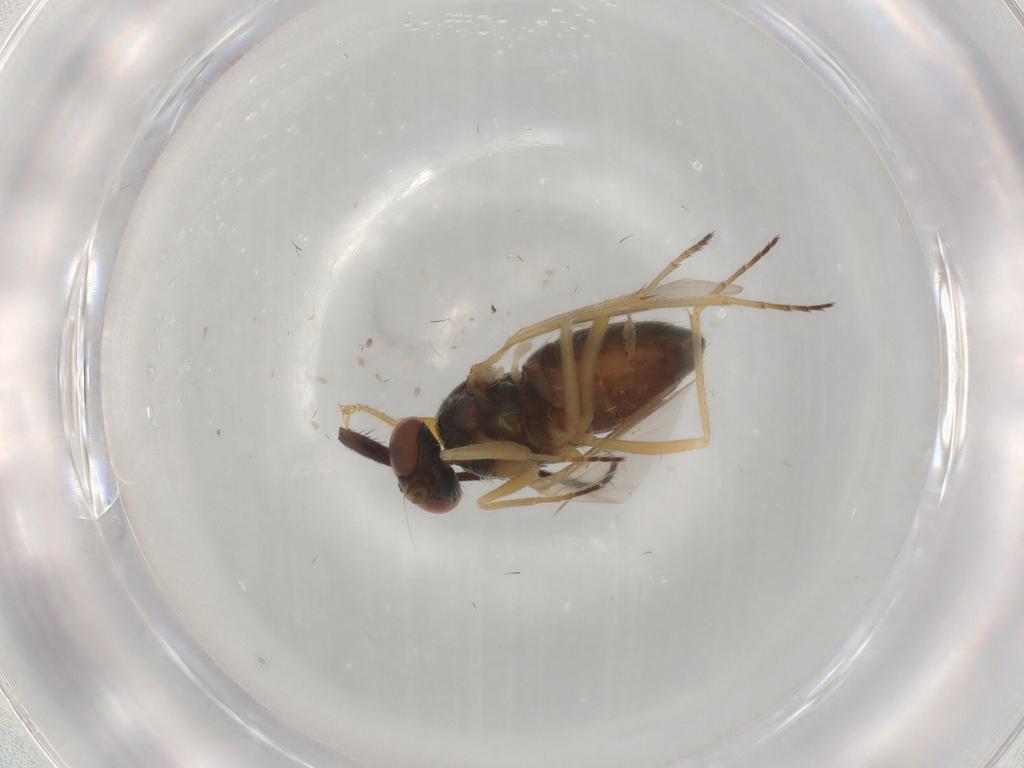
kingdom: Animalia
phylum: Arthropoda
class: Insecta
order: Diptera
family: Dolichopodidae
